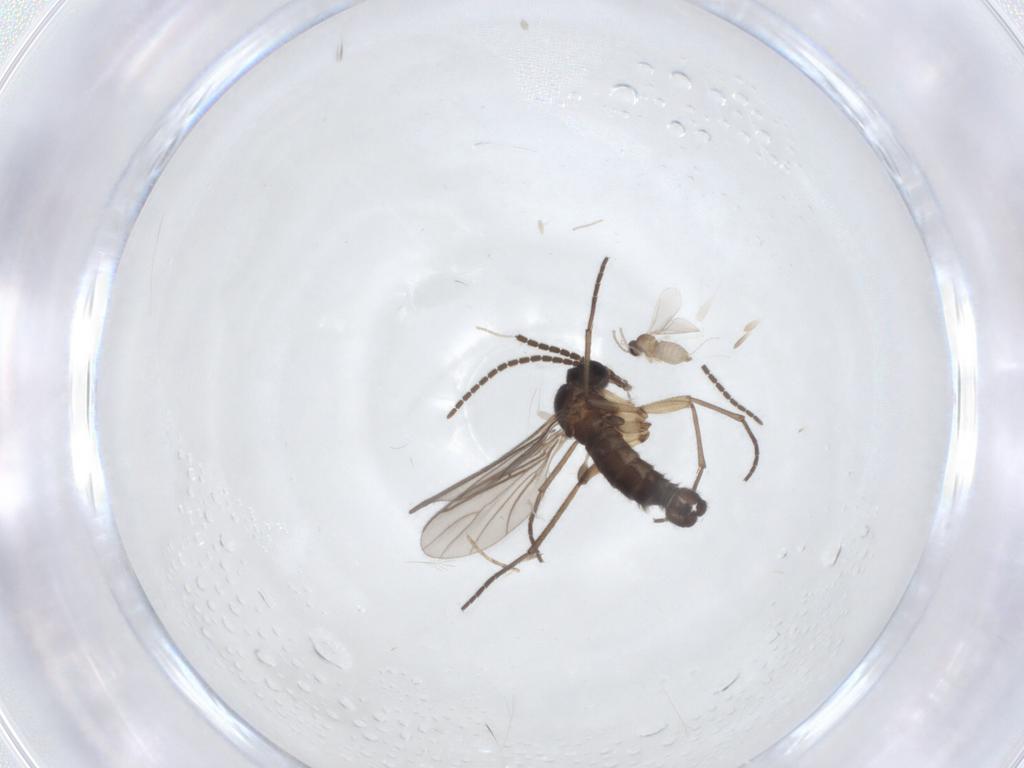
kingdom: Animalia
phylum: Arthropoda
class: Insecta
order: Diptera
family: Sciaridae
